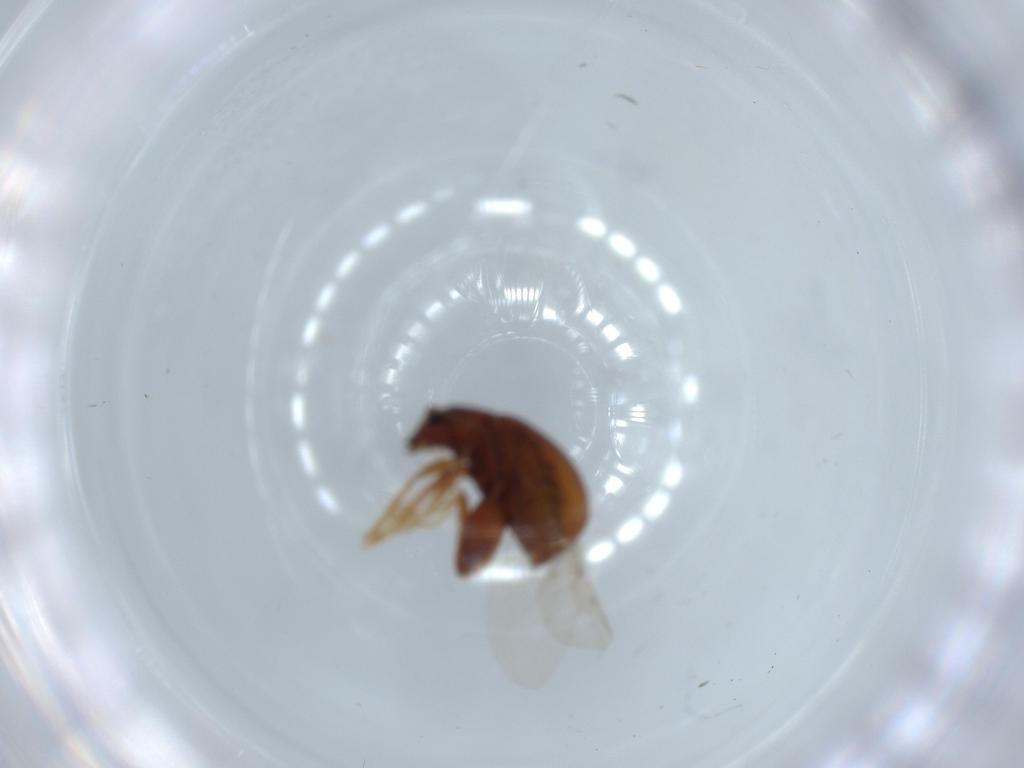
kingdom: Animalia
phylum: Arthropoda
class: Insecta
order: Coleoptera
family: Chrysomelidae
